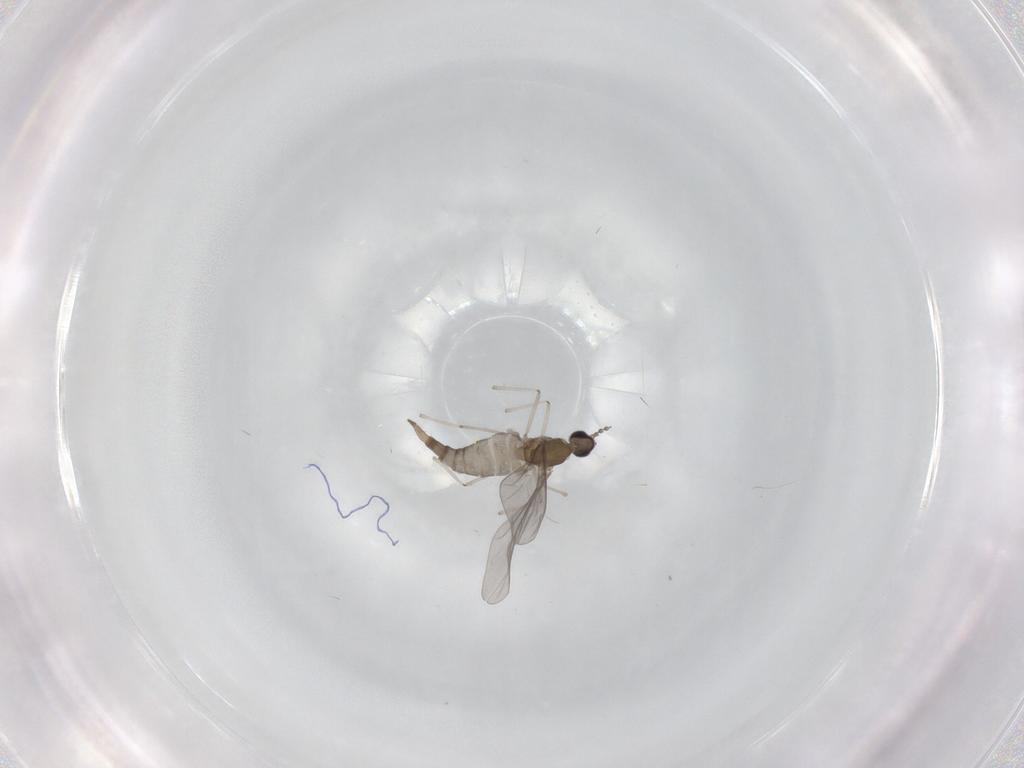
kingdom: Animalia
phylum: Arthropoda
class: Insecta
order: Diptera
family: Cecidomyiidae
